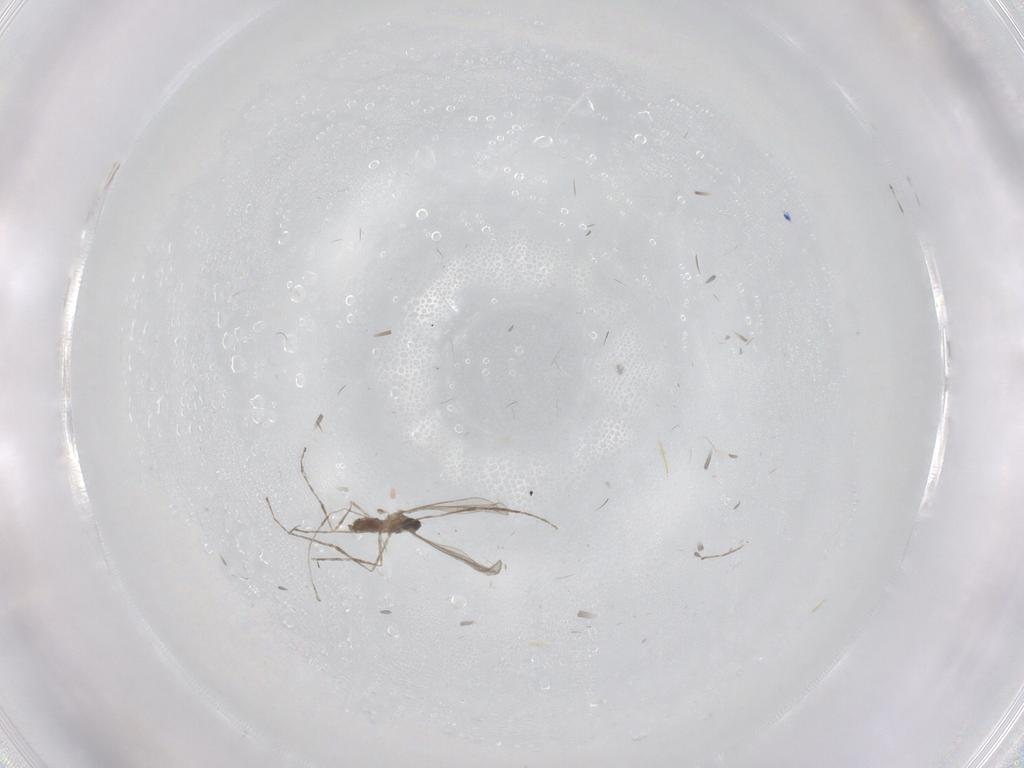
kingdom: Animalia
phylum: Arthropoda
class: Insecta
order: Diptera
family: Cecidomyiidae
